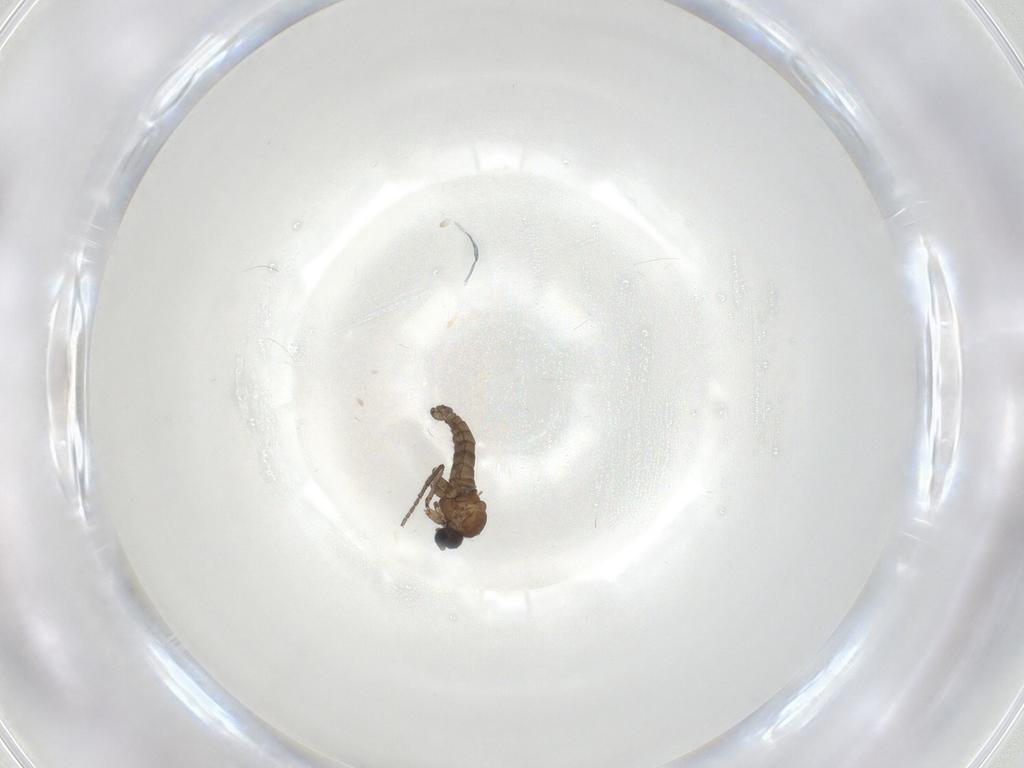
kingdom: Animalia
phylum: Arthropoda
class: Insecta
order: Diptera
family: Sciaridae
